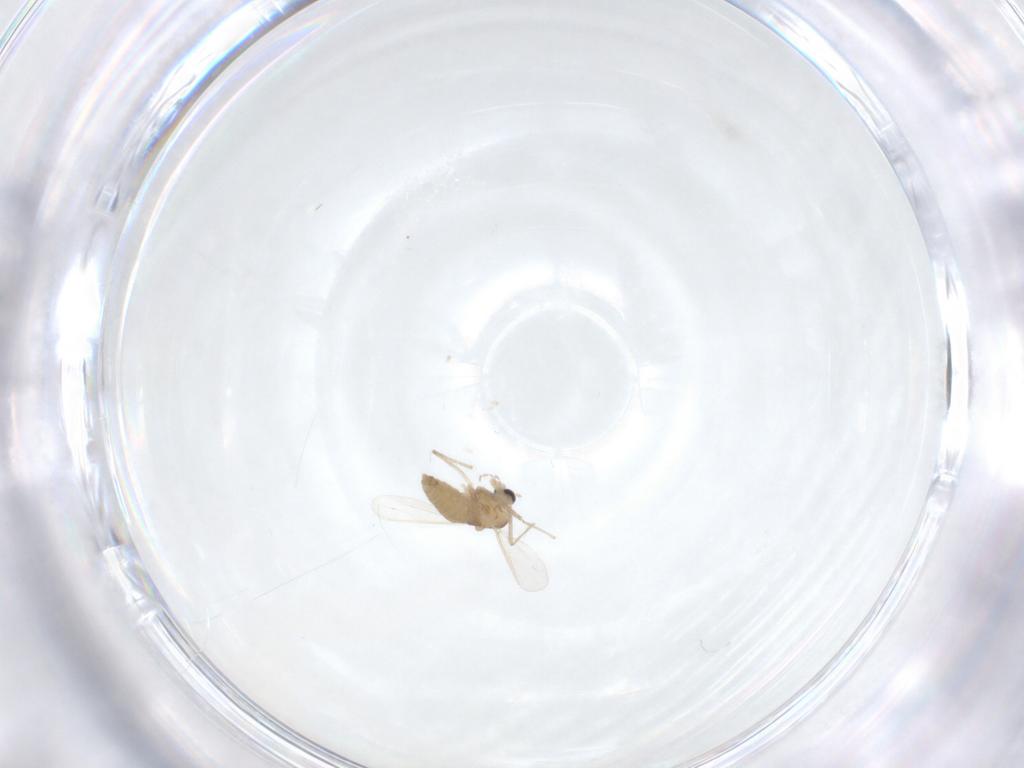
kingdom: Animalia
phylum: Arthropoda
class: Insecta
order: Diptera
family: Chironomidae
